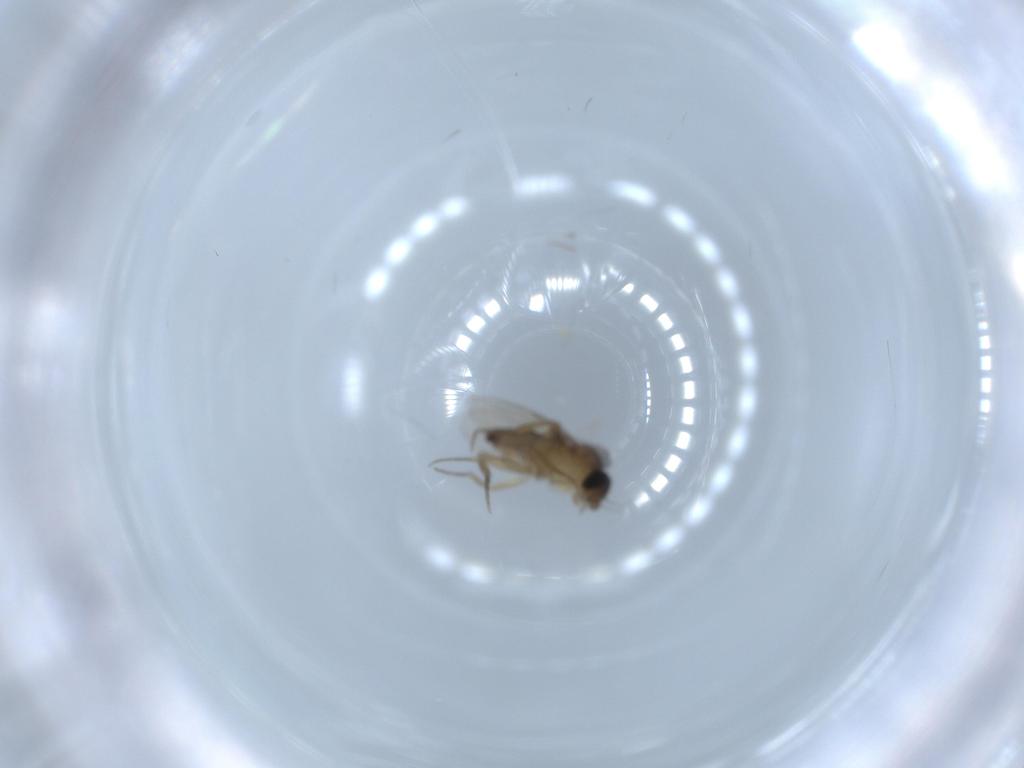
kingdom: Animalia
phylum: Arthropoda
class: Insecta
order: Diptera
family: Phoridae
